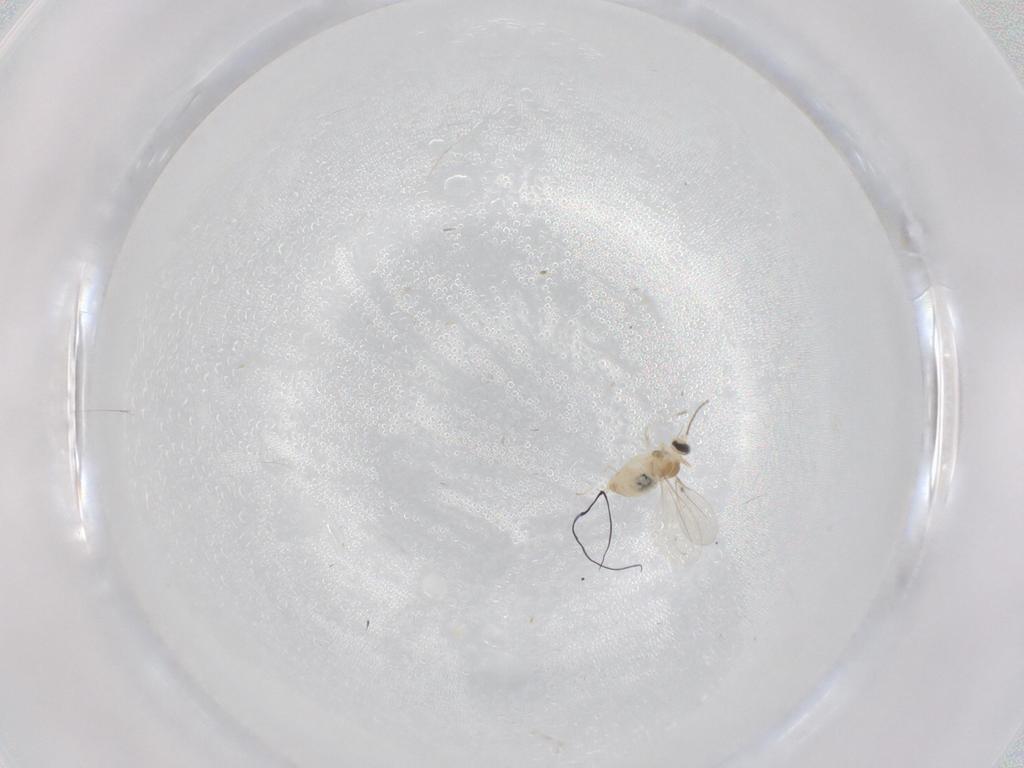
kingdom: Animalia
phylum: Arthropoda
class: Insecta
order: Diptera
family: Cecidomyiidae
